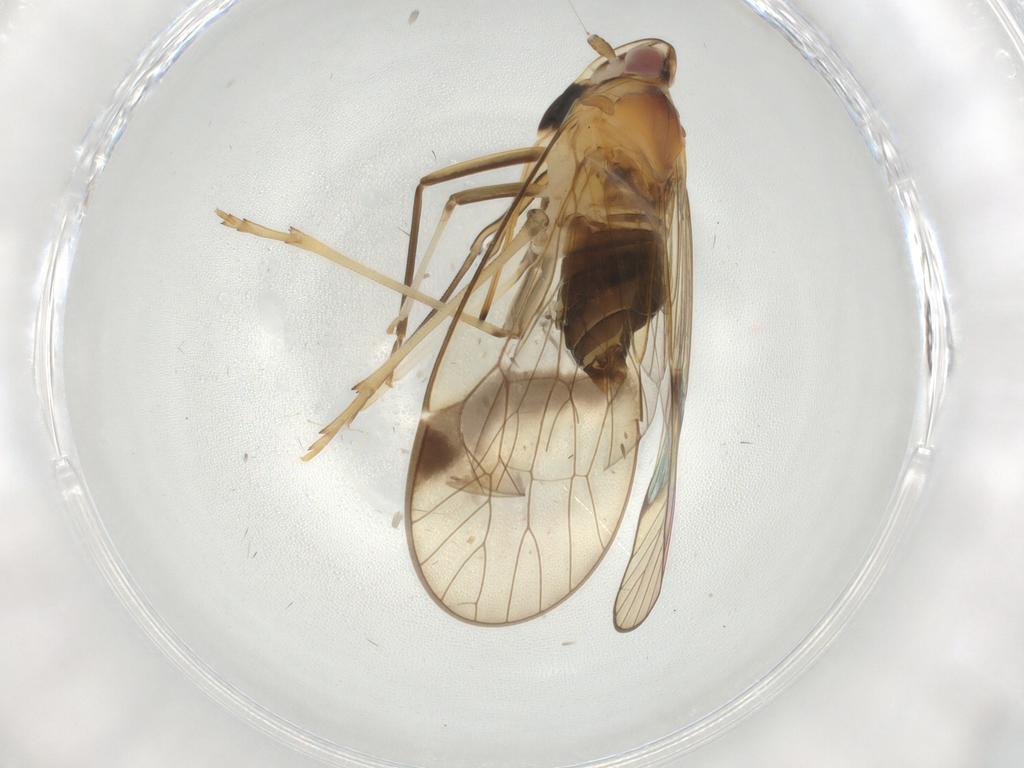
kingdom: Animalia
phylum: Arthropoda
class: Insecta
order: Hemiptera
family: Kinnaridae
